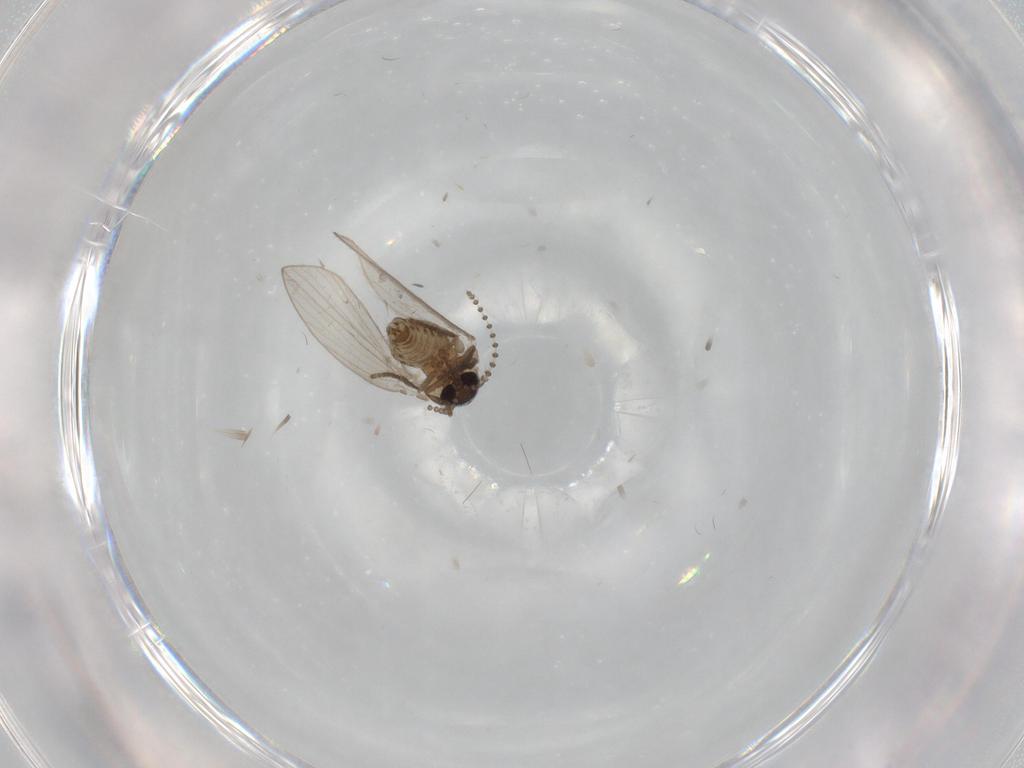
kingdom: Animalia
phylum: Arthropoda
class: Insecta
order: Diptera
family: Psychodidae
